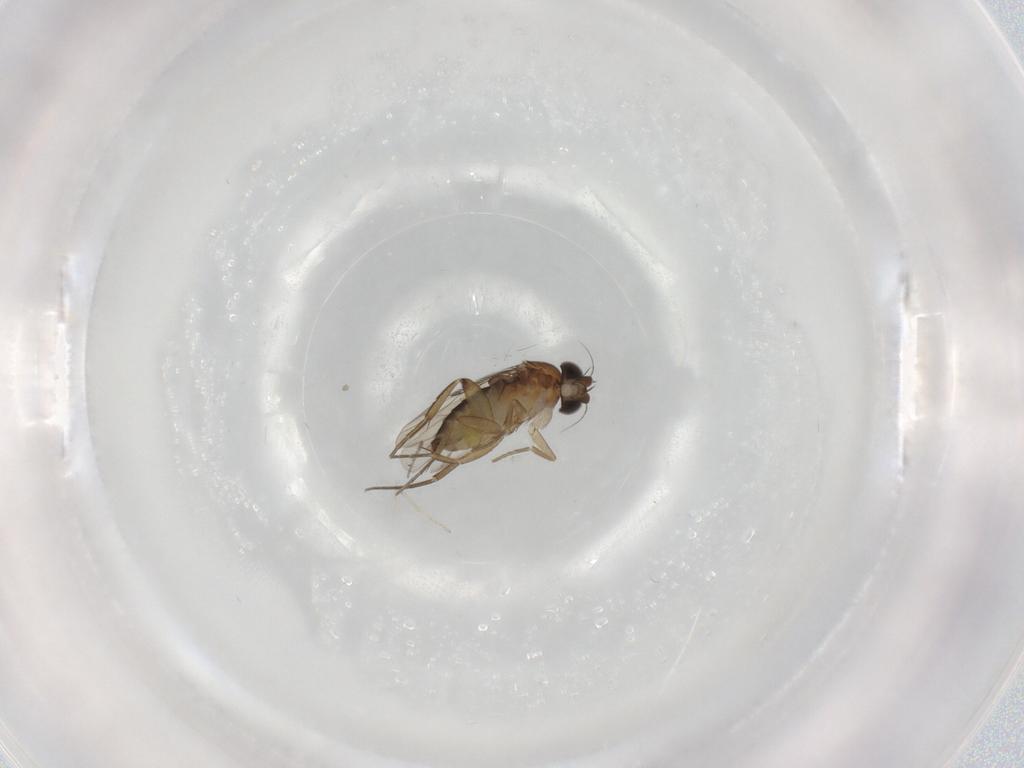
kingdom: Animalia
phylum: Arthropoda
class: Insecta
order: Diptera
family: Phoridae
